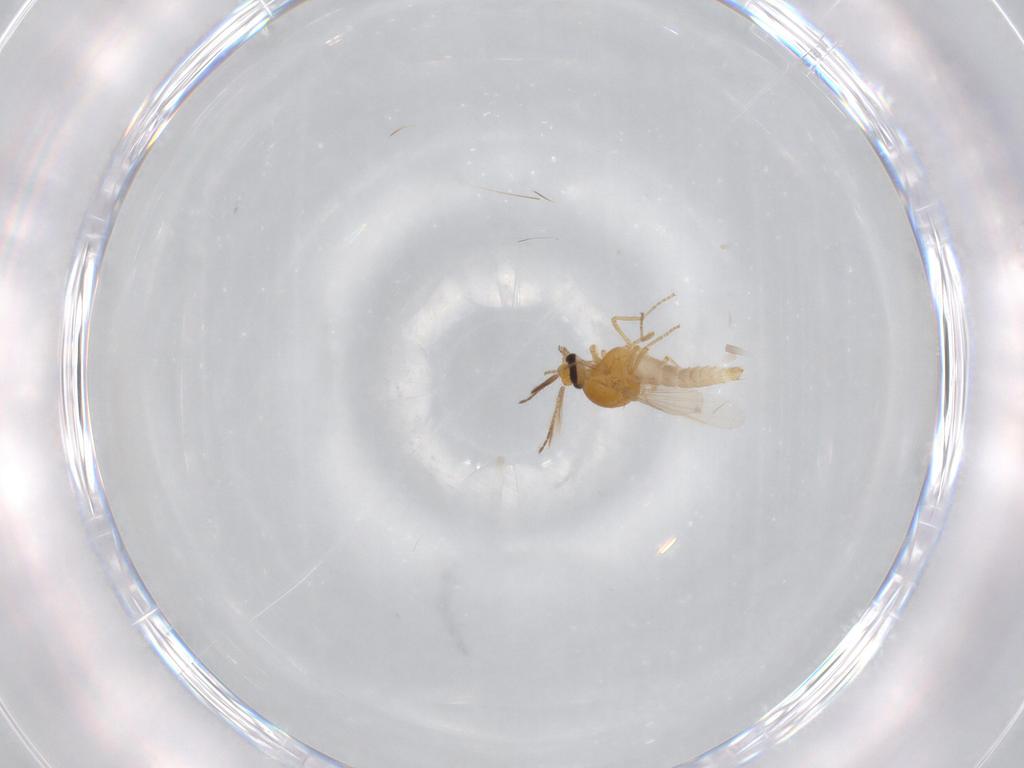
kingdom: Animalia
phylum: Arthropoda
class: Insecta
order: Diptera
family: Ceratopogonidae
